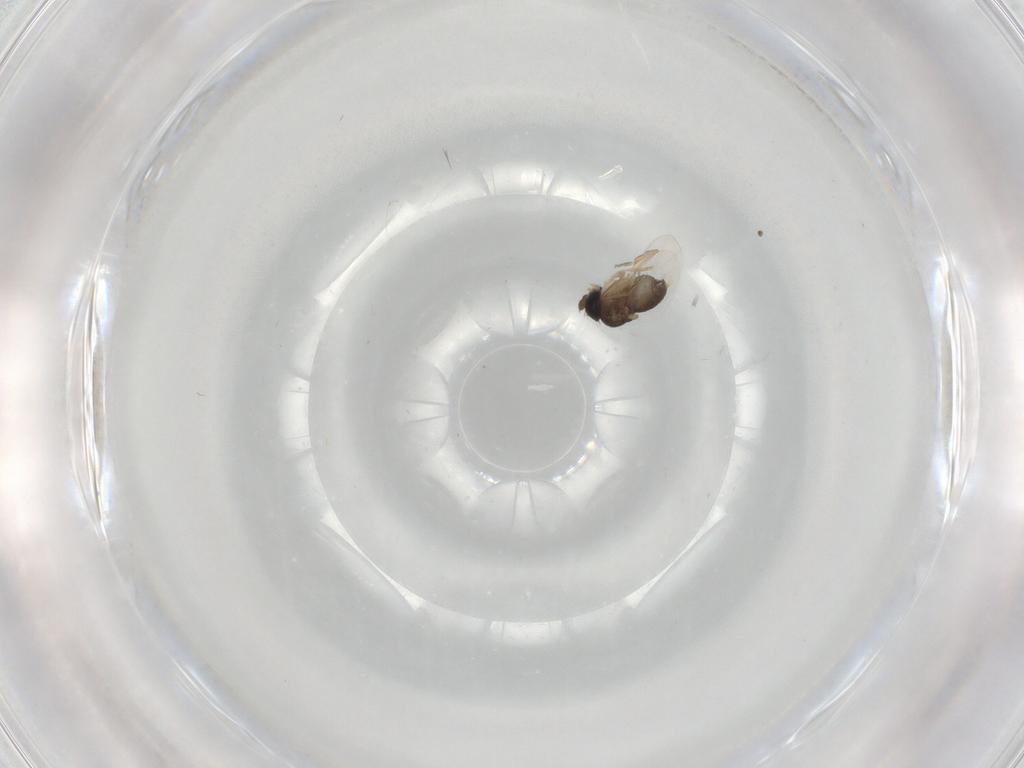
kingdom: Animalia
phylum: Arthropoda
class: Insecta
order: Diptera
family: Phoridae
